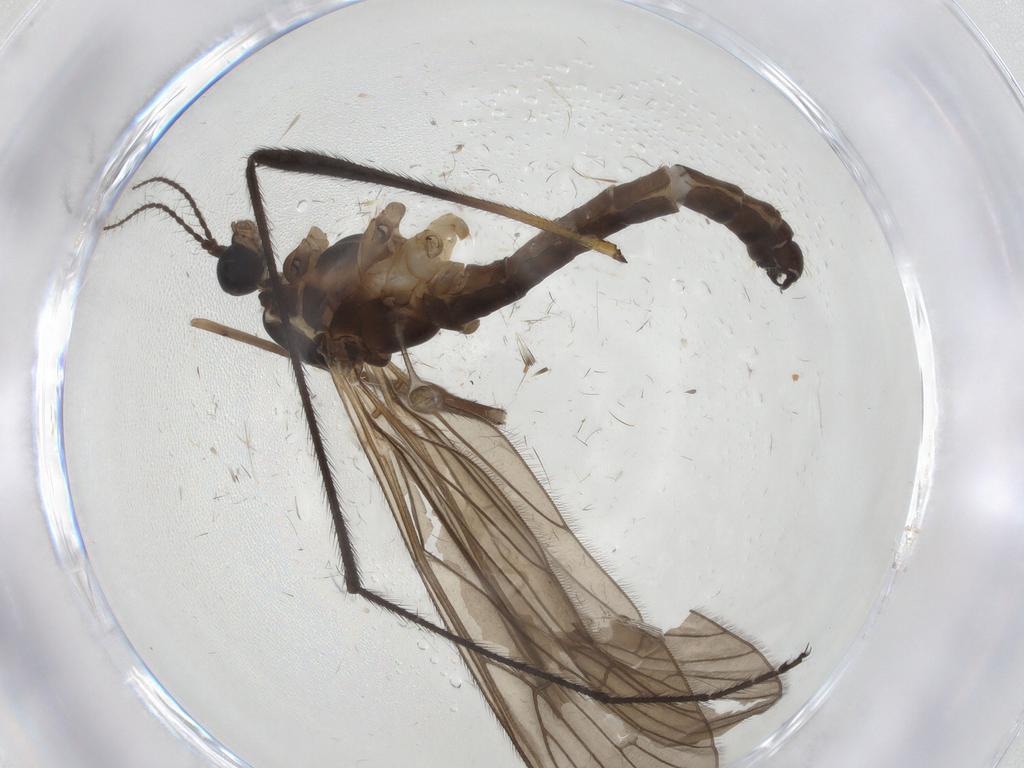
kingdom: Animalia
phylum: Arthropoda
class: Insecta
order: Diptera
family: Limoniidae
